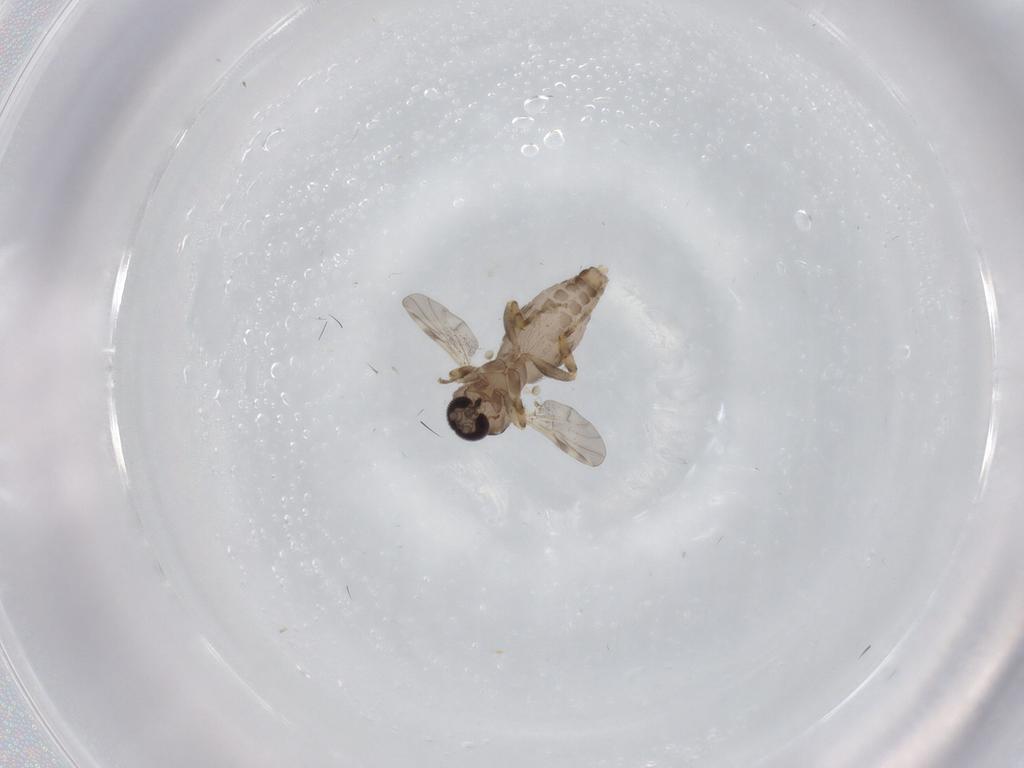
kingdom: Animalia
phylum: Arthropoda
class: Insecta
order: Diptera
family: Ceratopogonidae
